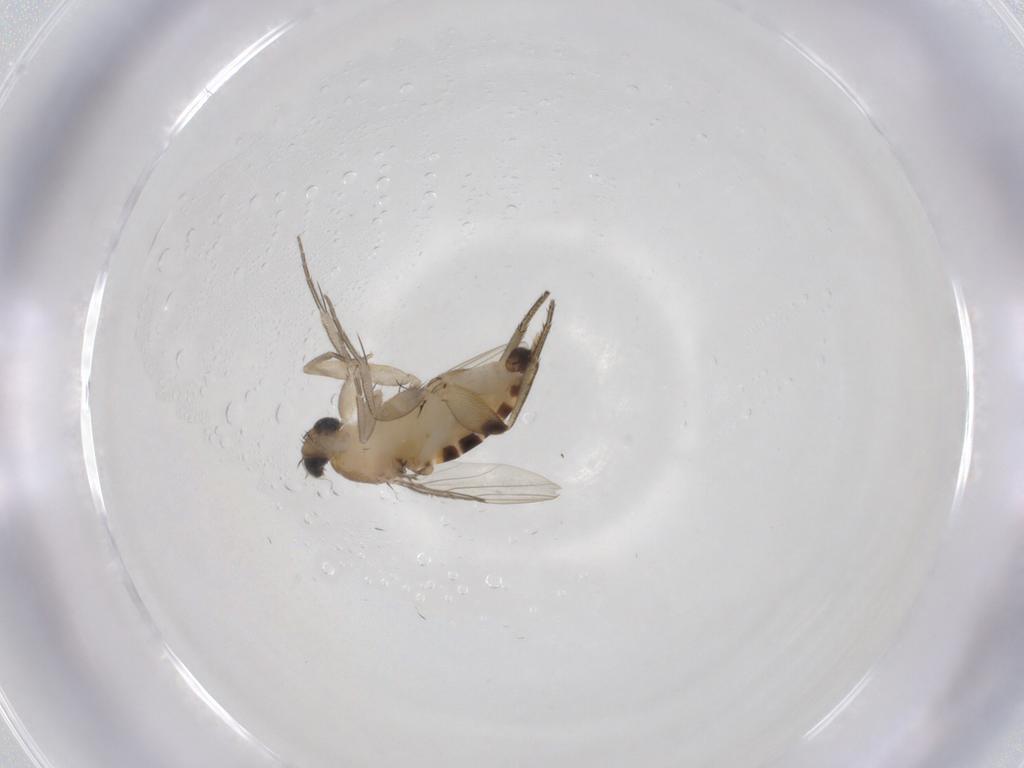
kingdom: Animalia
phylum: Arthropoda
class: Insecta
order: Diptera
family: Phoridae
